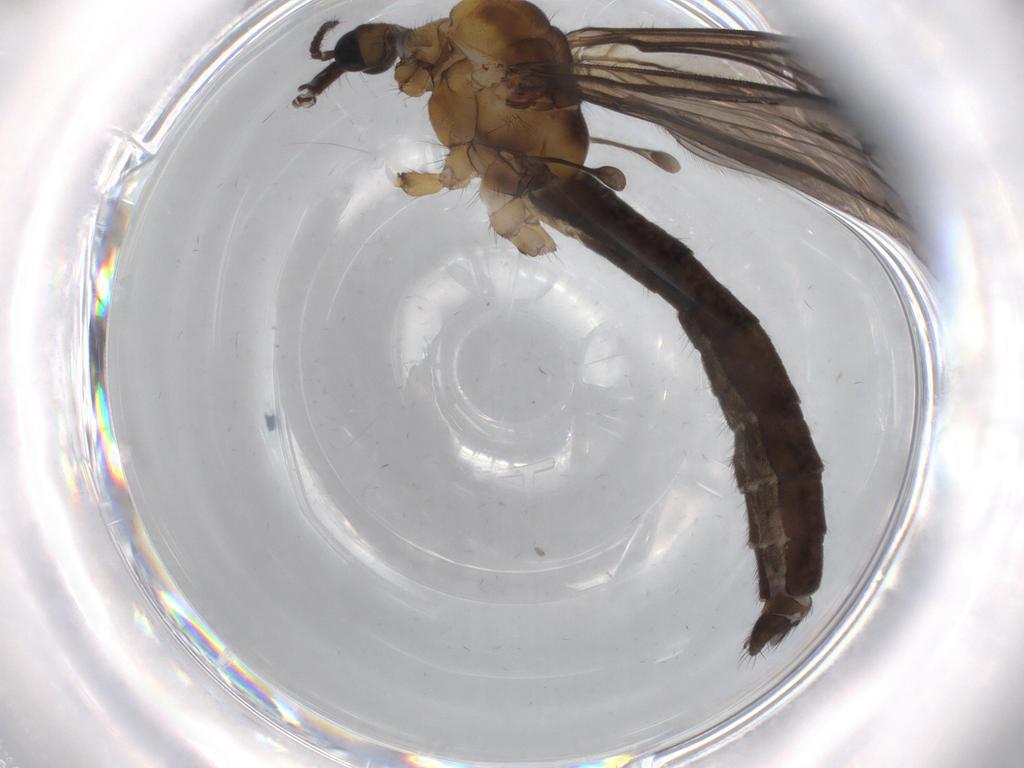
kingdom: Animalia
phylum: Arthropoda
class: Insecta
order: Diptera
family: Limoniidae
